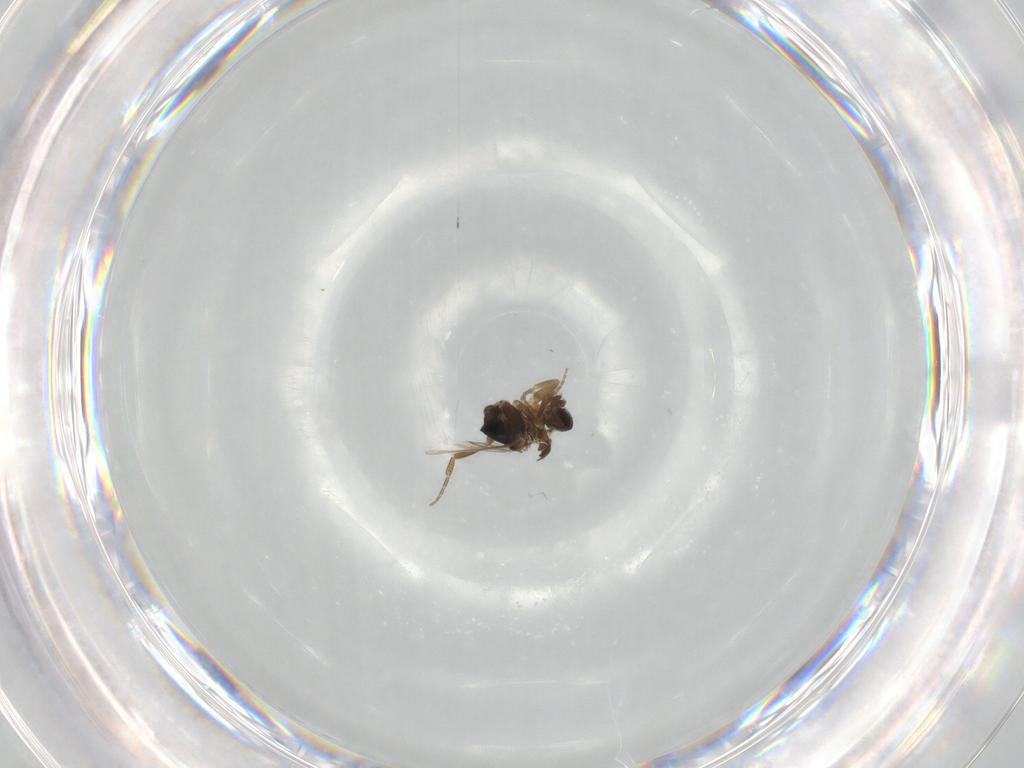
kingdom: Animalia
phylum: Arthropoda
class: Insecta
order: Diptera
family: Phoridae
